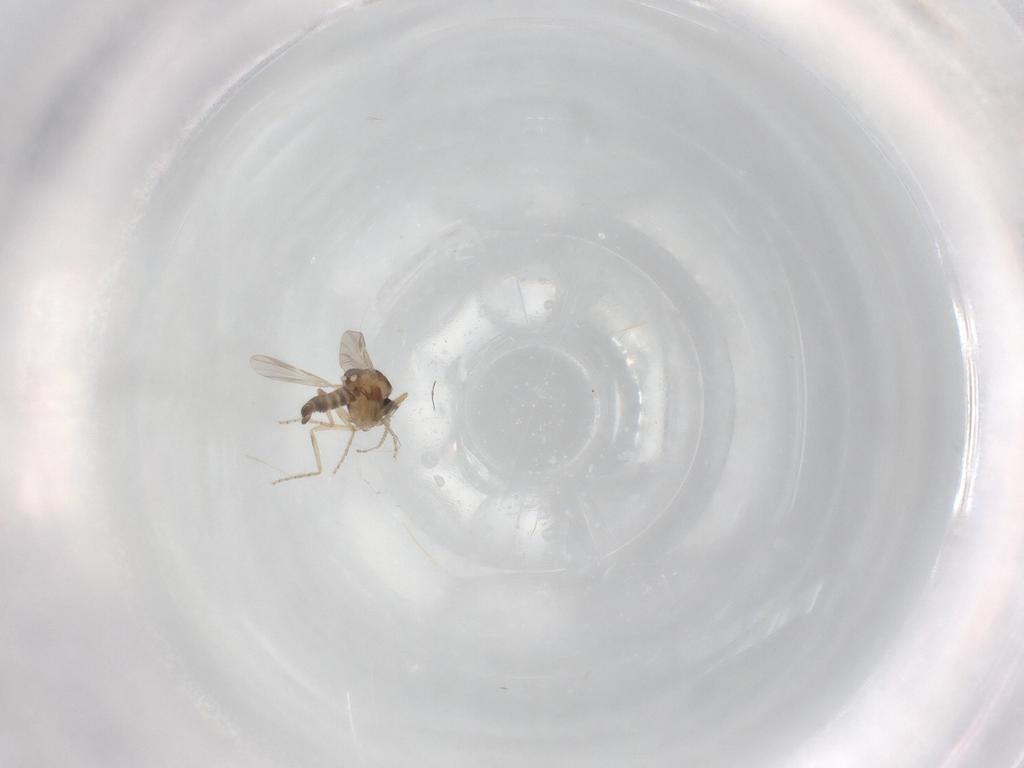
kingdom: Animalia
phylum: Arthropoda
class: Insecta
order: Diptera
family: Ceratopogonidae
